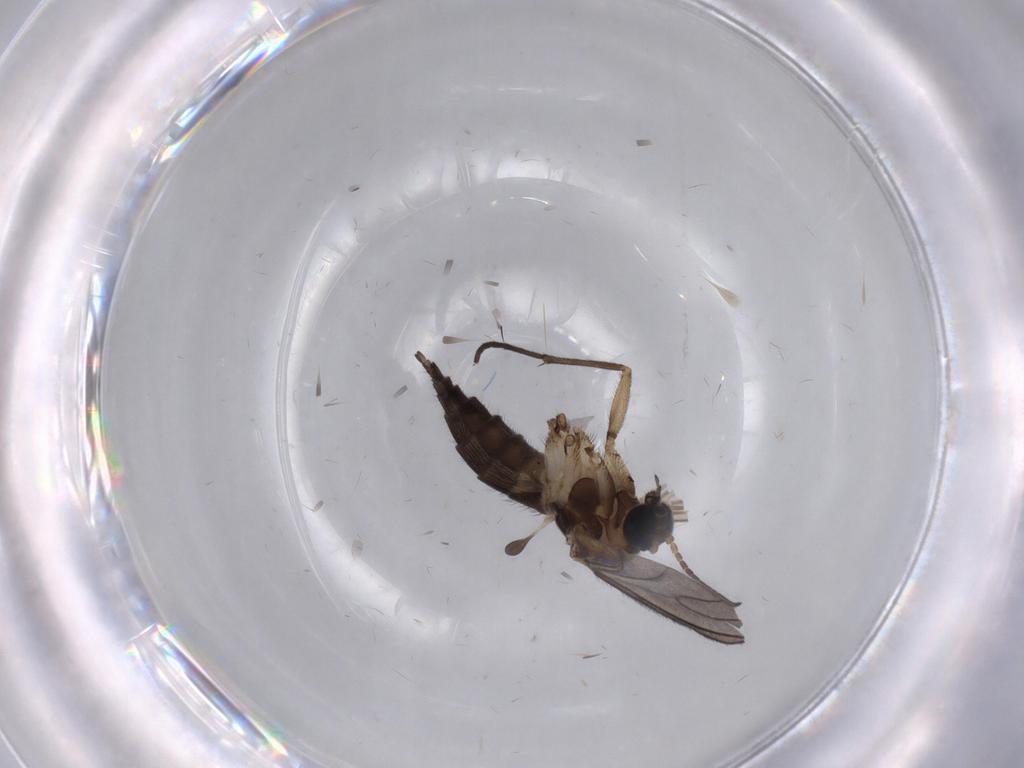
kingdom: Animalia
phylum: Arthropoda
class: Insecta
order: Diptera
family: Sciaridae
